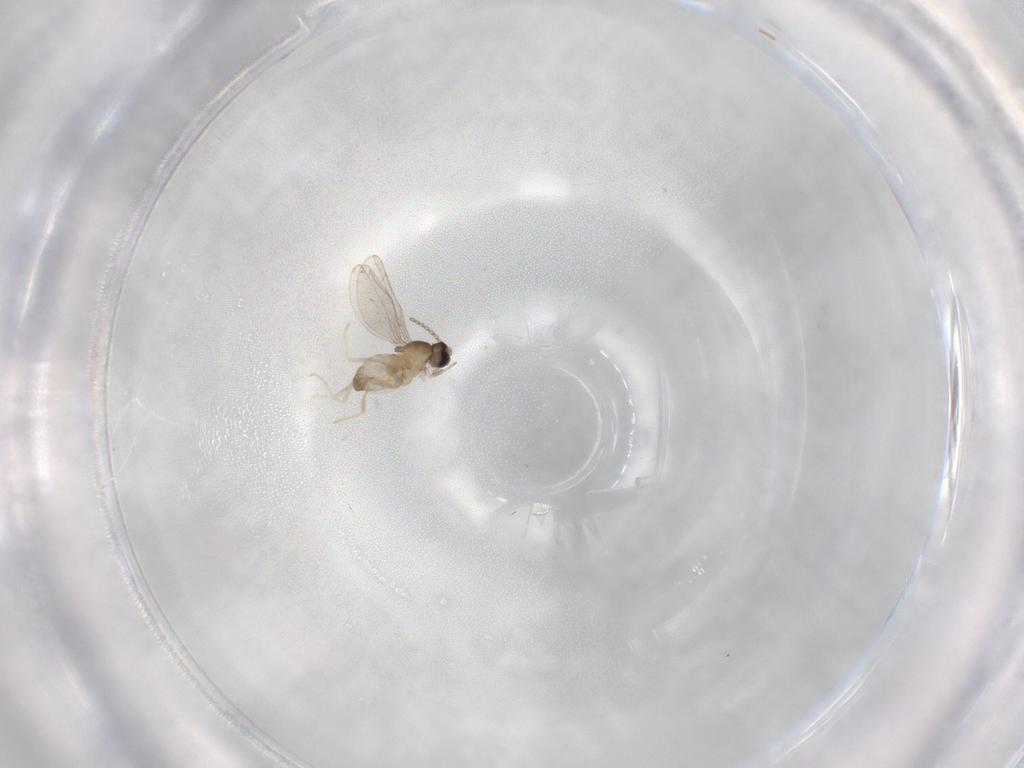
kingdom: Animalia
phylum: Arthropoda
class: Insecta
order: Diptera
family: Cecidomyiidae
